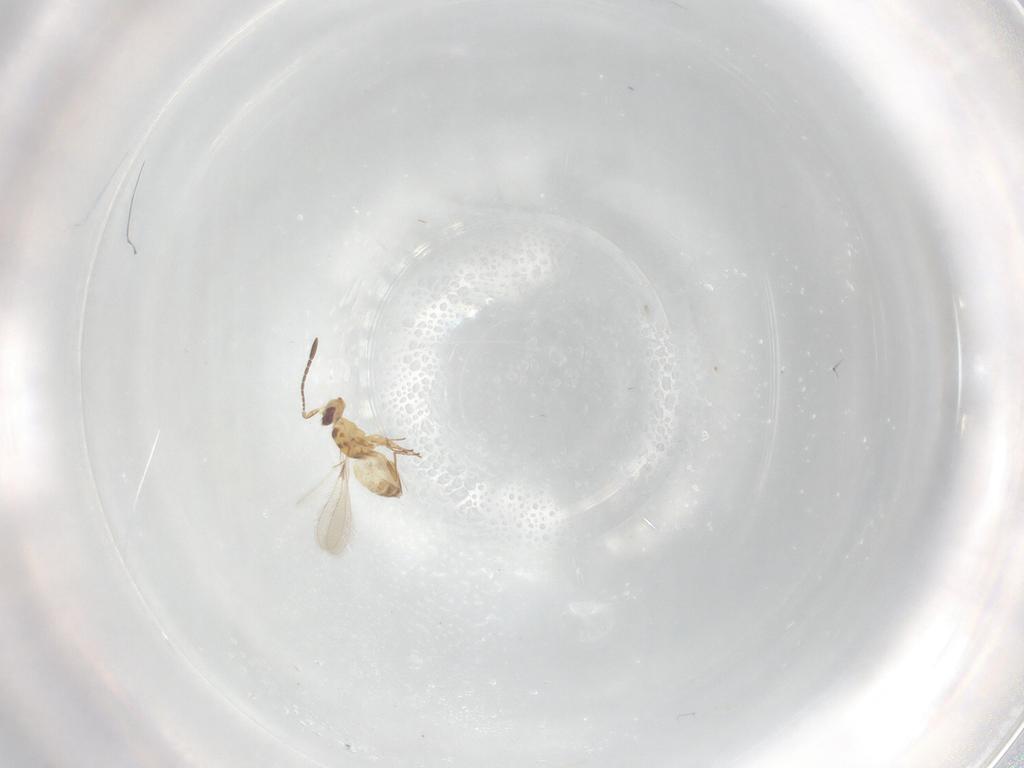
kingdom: Animalia
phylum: Arthropoda
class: Insecta
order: Hymenoptera
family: Mymaridae
